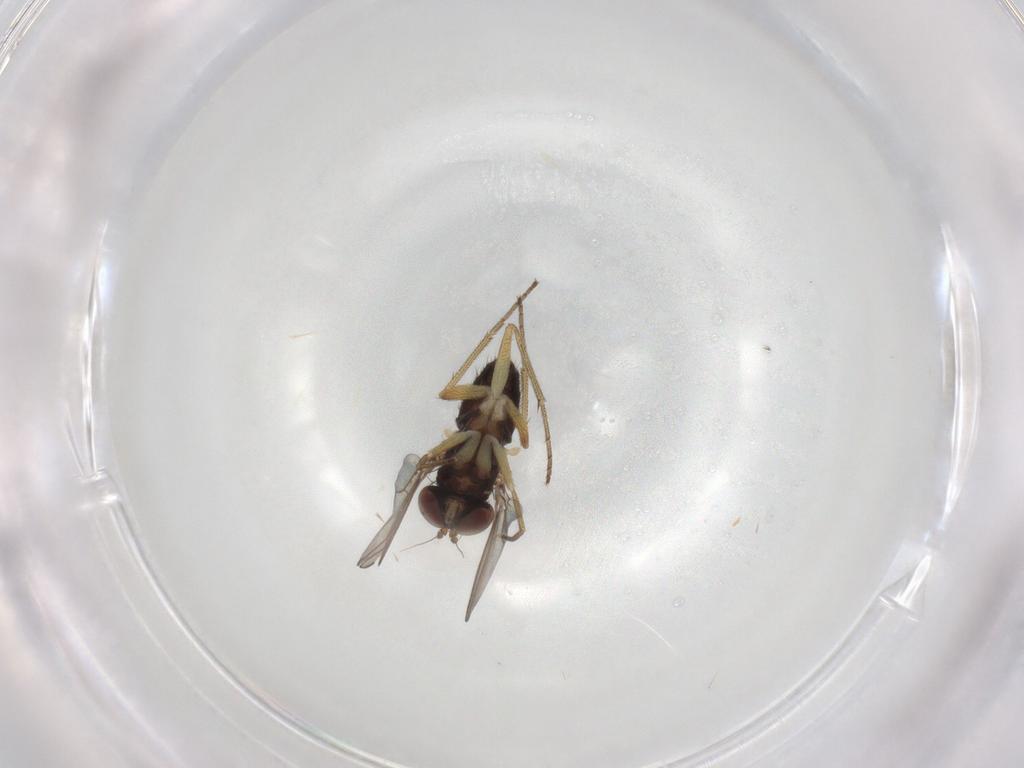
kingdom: Animalia
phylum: Arthropoda
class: Insecta
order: Diptera
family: Dolichopodidae
